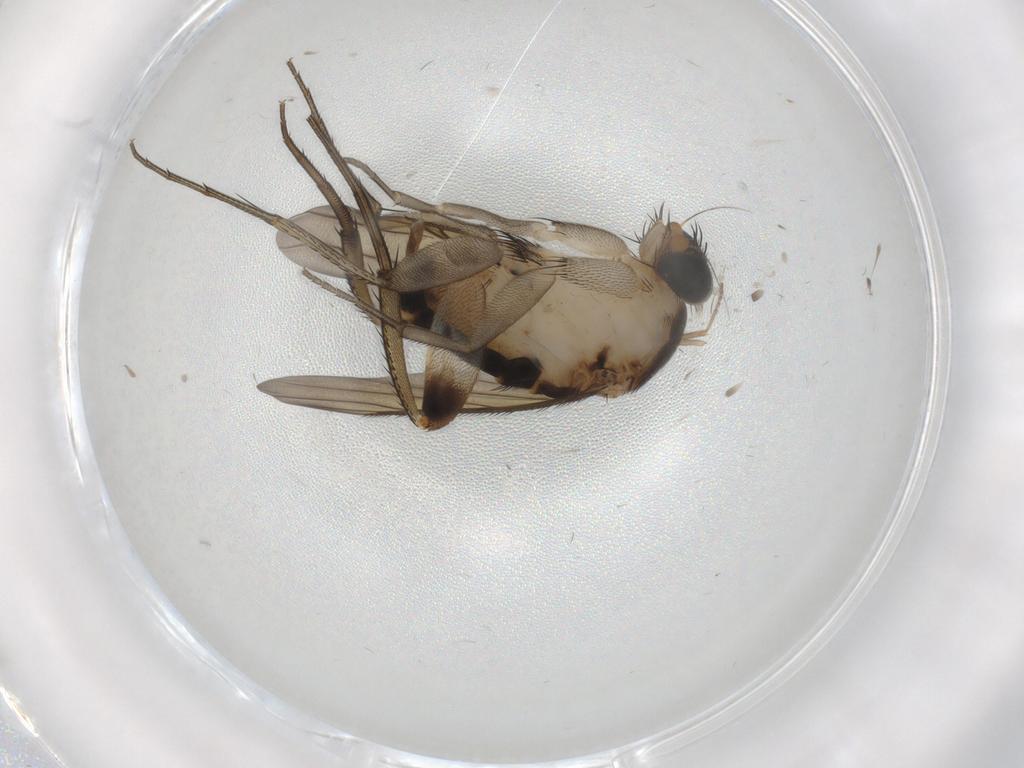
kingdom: Animalia
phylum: Arthropoda
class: Insecta
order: Diptera
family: Phoridae
